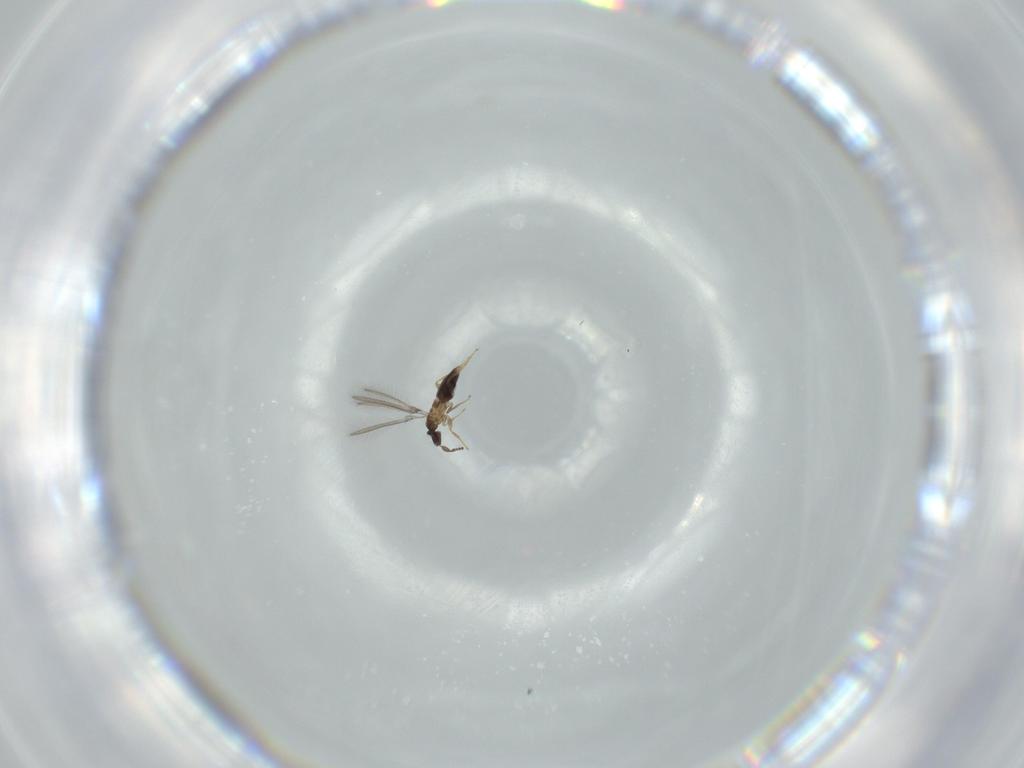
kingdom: Animalia
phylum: Arthropoda
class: Insecta
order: Hymenoptera
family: Mymaridae
